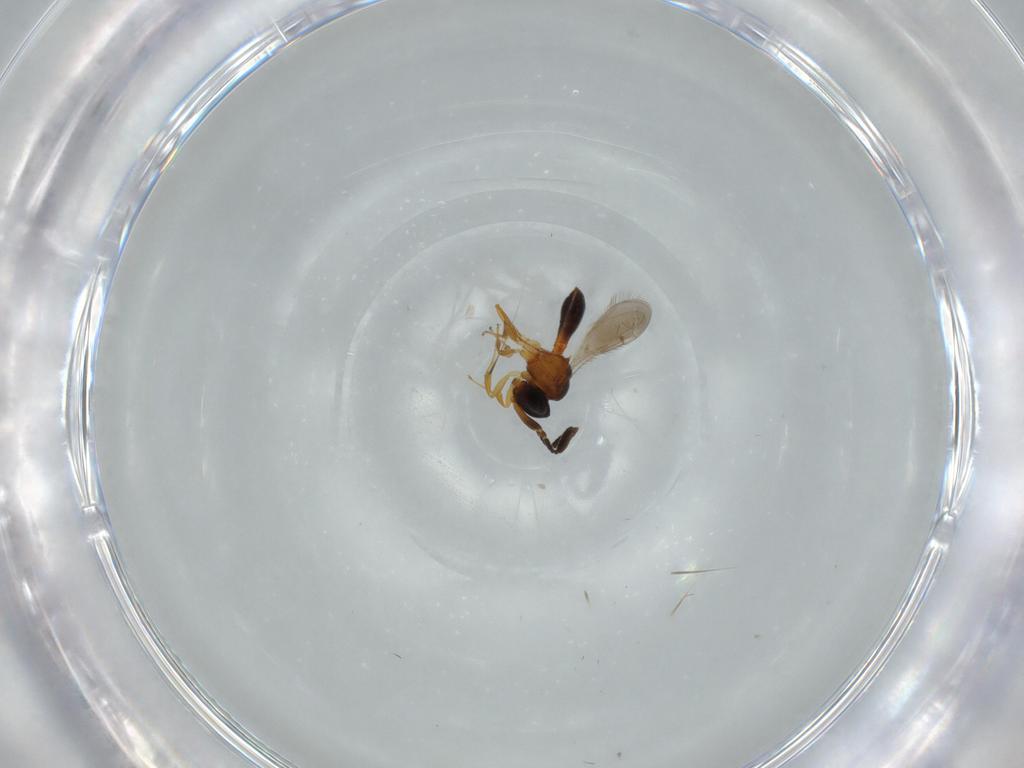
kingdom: Animalia
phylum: Arthropoda
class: Insecta
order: Hymenoptera
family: Scelionidae
